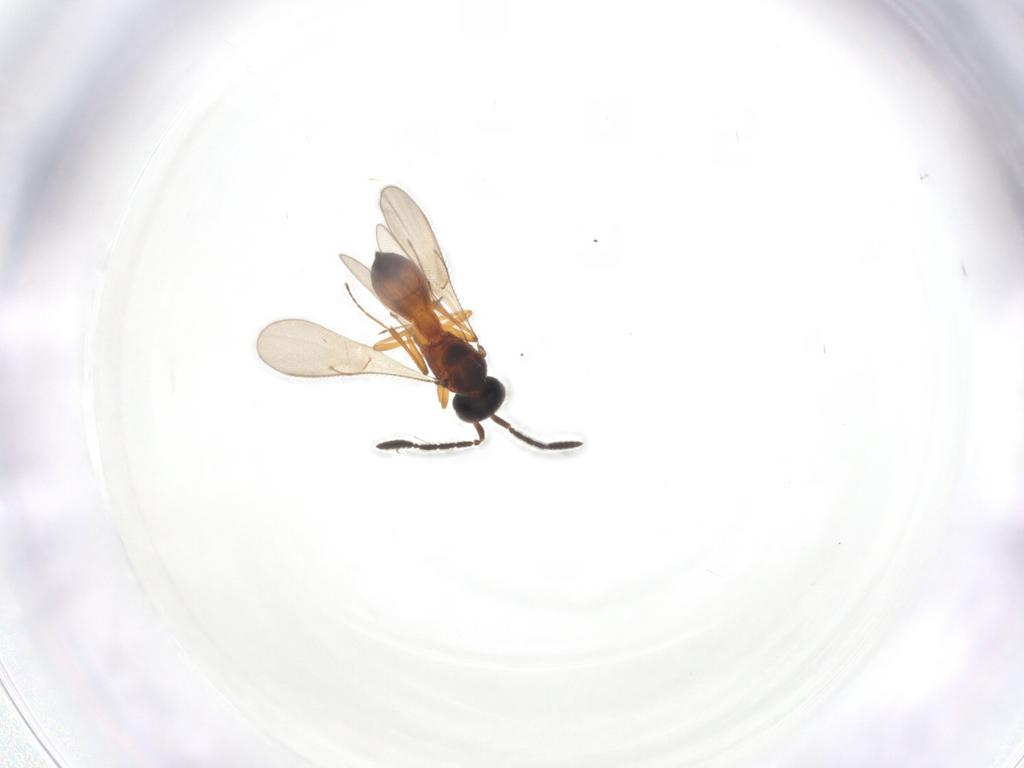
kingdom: Animalia
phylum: Arthropoda
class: Insecta
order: Hymenoptera
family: Scelionidae
